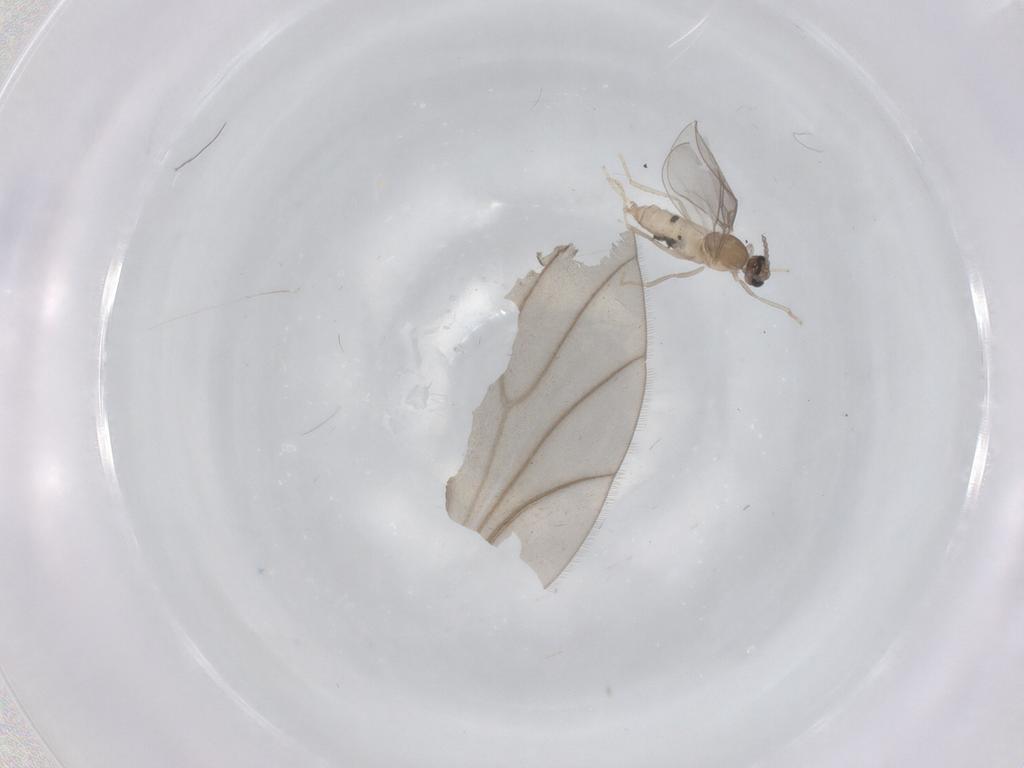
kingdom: Animalia
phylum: Arthropoda
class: Insecta
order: Diptera
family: Cecidomyiidae
